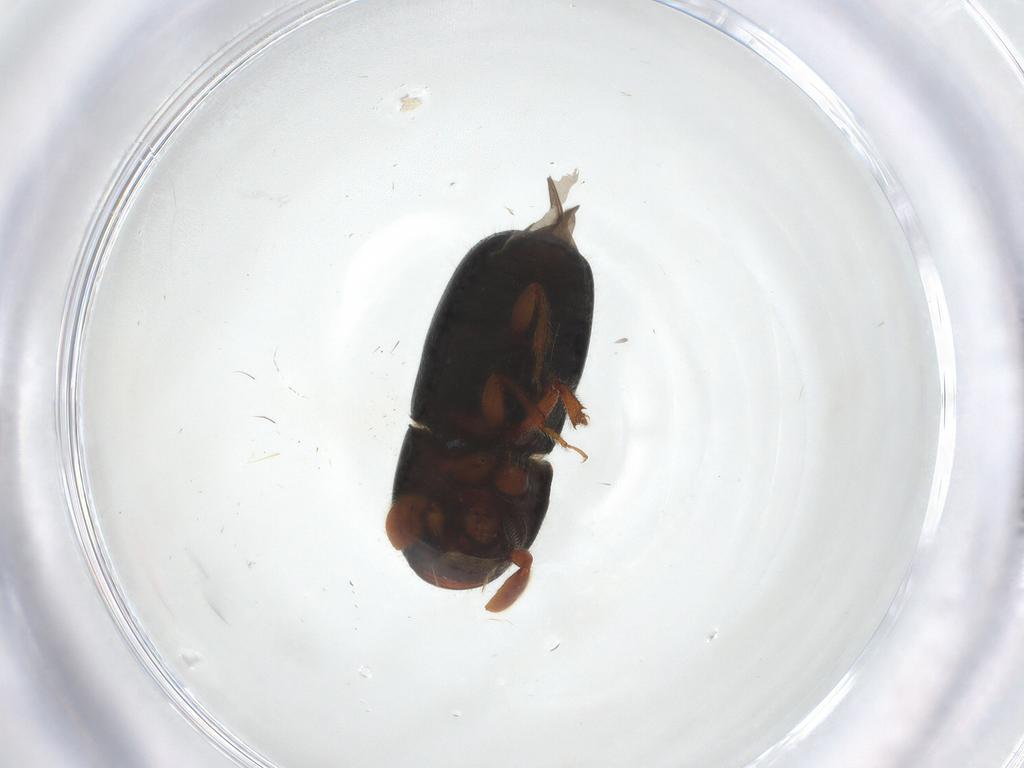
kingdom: Animalia
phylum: Arthropoda
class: Insecta
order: Coleoptera
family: Curculionidae
